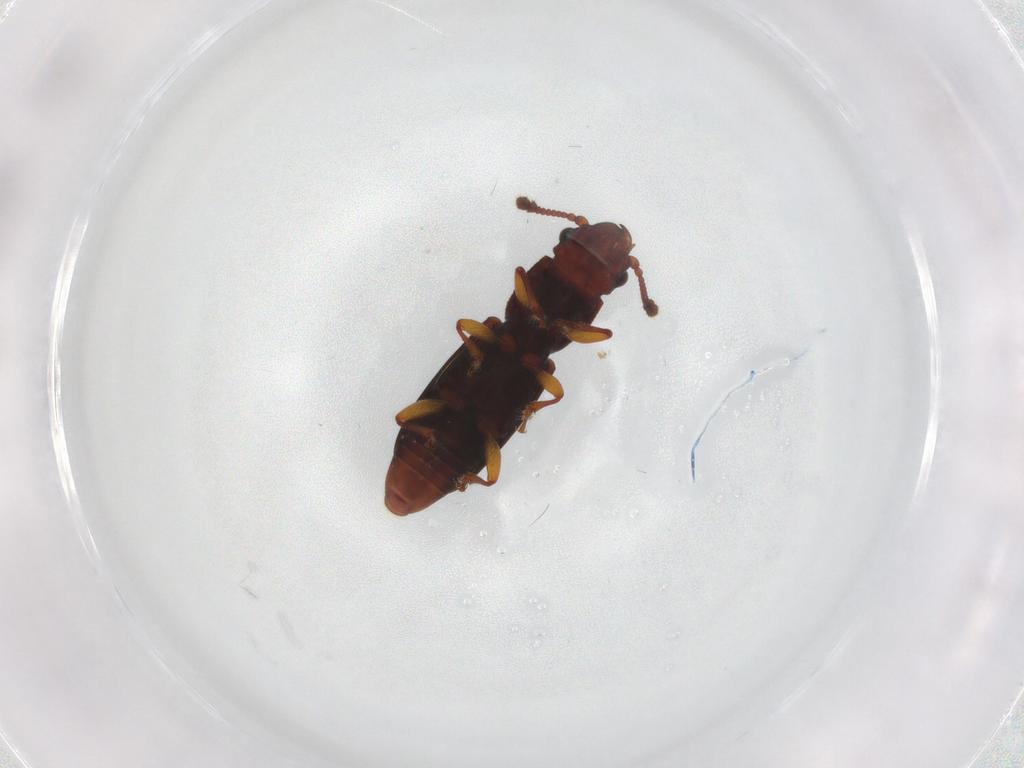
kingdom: Animalia
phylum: Arthropoda
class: Insecta
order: Coleoptera
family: Monotomidae
